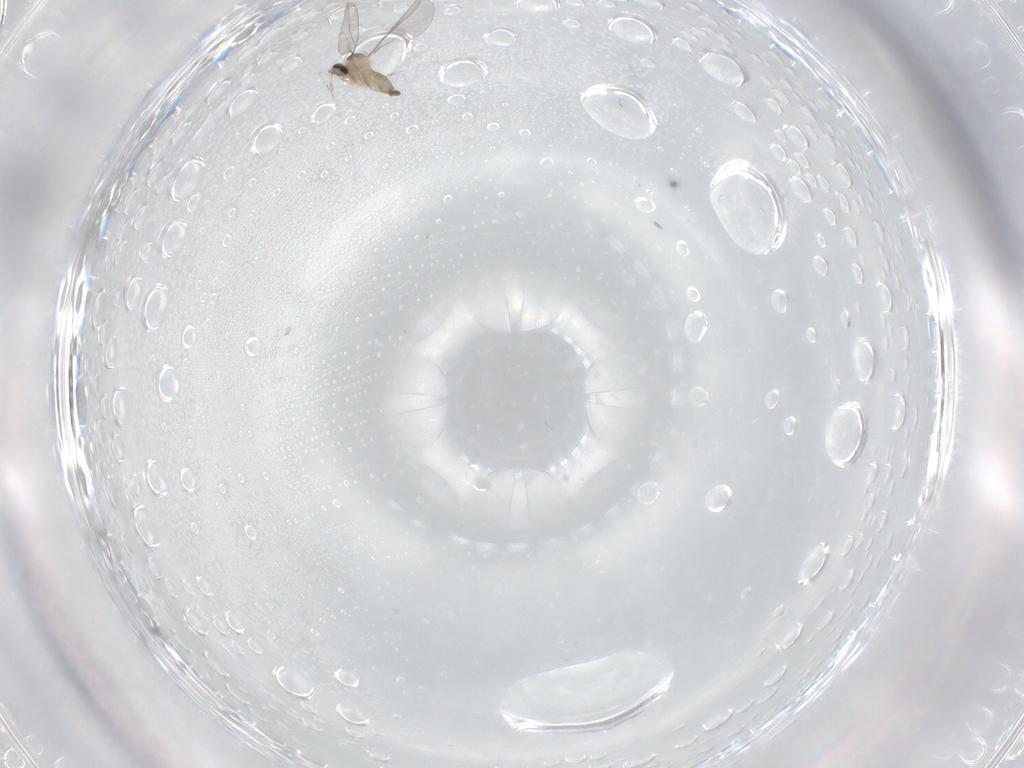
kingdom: Animalia
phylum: Arthropoda
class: Insecta
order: Diptera
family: Cecidomyiidae
